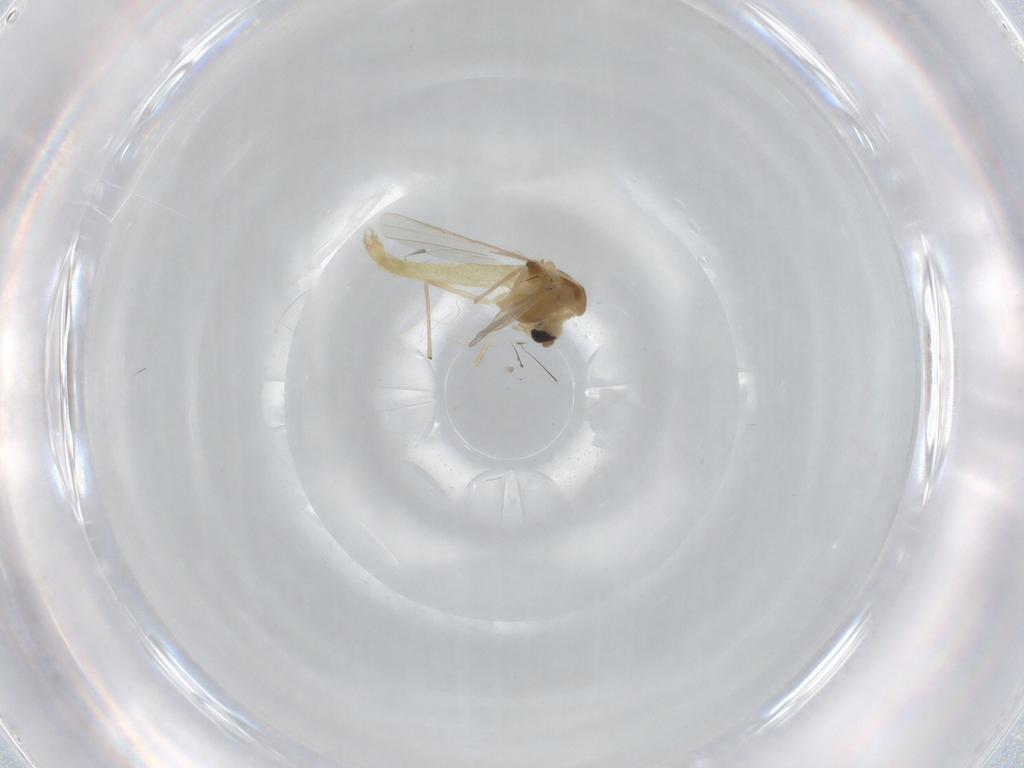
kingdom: Animalia
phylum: Arthropoda
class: Insecta
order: Diptera
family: Chironomidae
